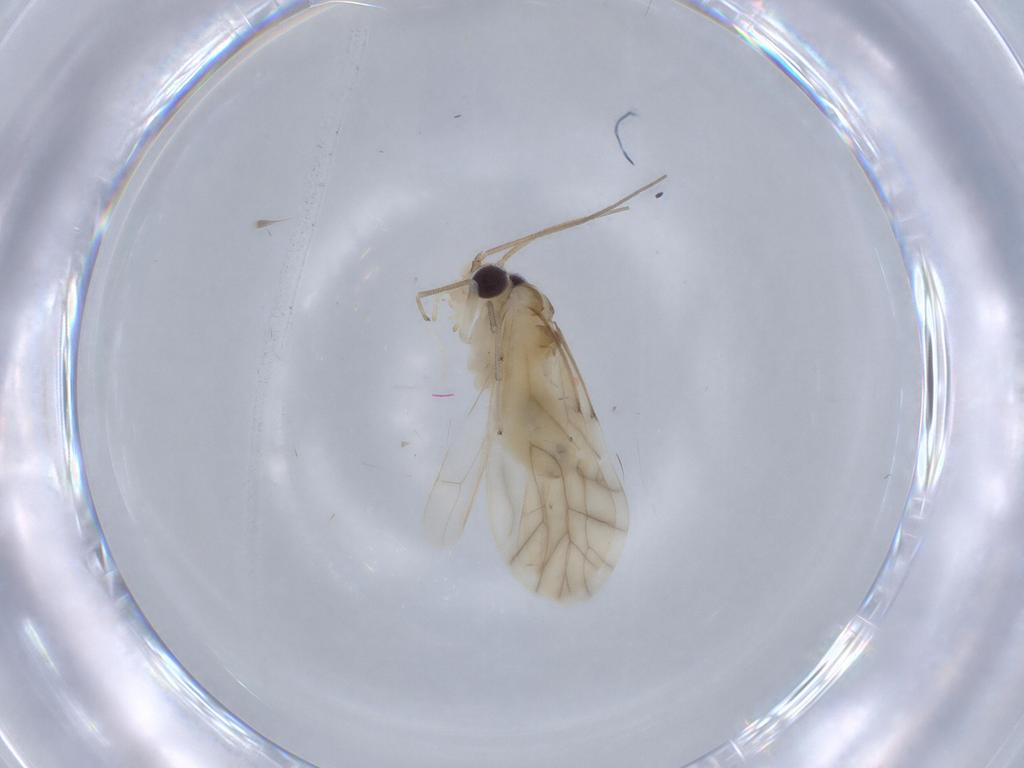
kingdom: Animalia
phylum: Arthropoda
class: Insecta
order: Psocodea
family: Caeciliusidae
